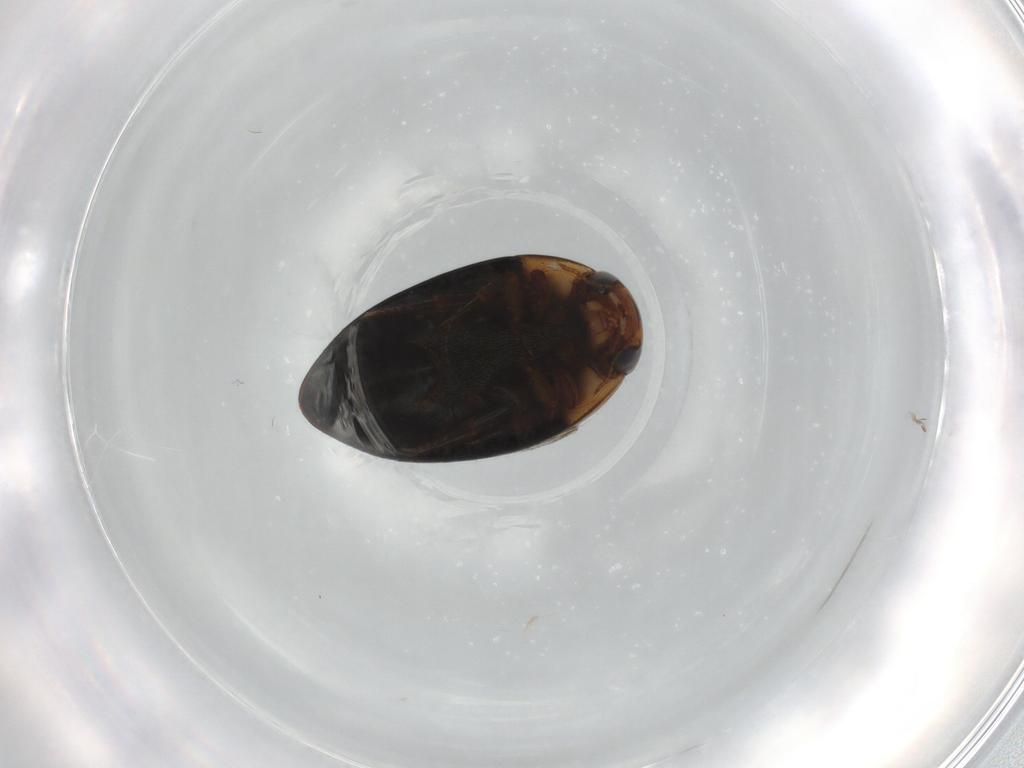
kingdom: Animalia
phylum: Arthropoda
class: Insecta
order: Coleoptera
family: Noteridae
